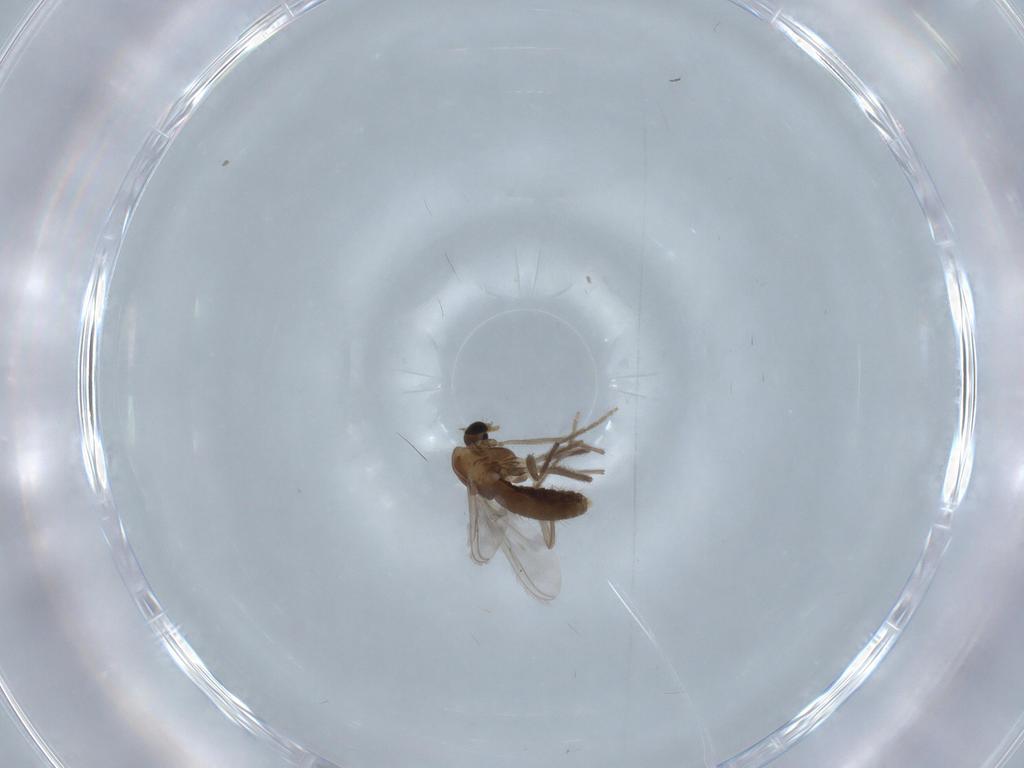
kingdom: Animalia
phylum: Arthropoda
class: Insecta
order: Diptera
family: Chironomidae
